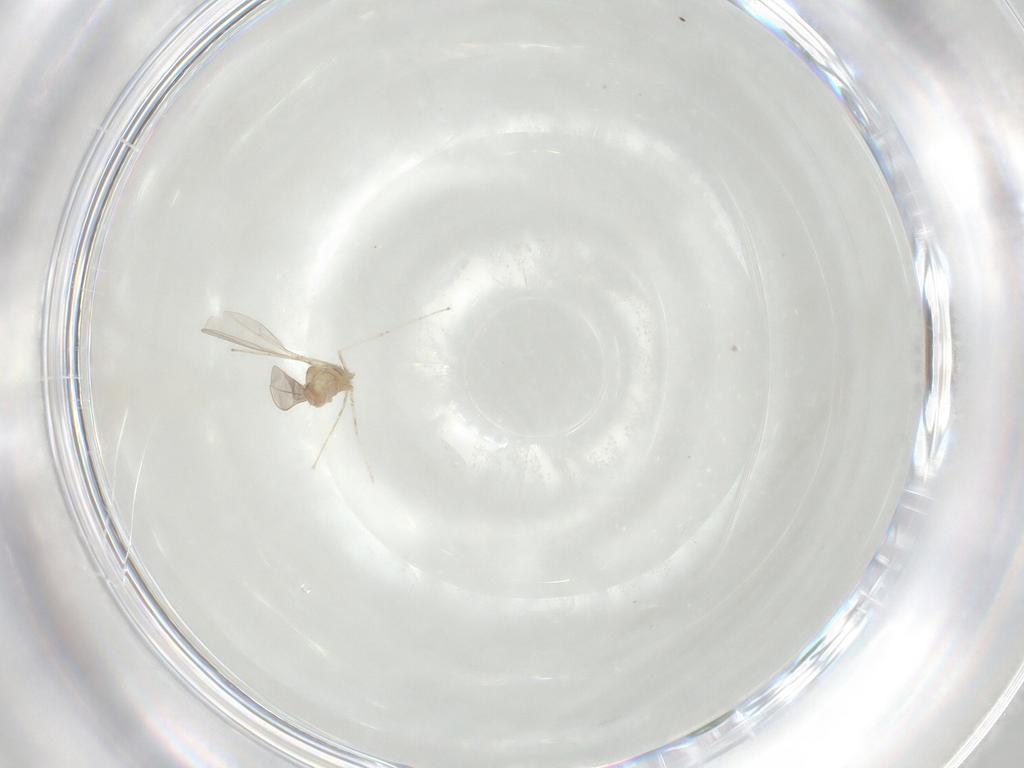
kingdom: Animalia
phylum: Arthropoda
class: Insecta
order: Diptera
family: Cecidomyiidae
